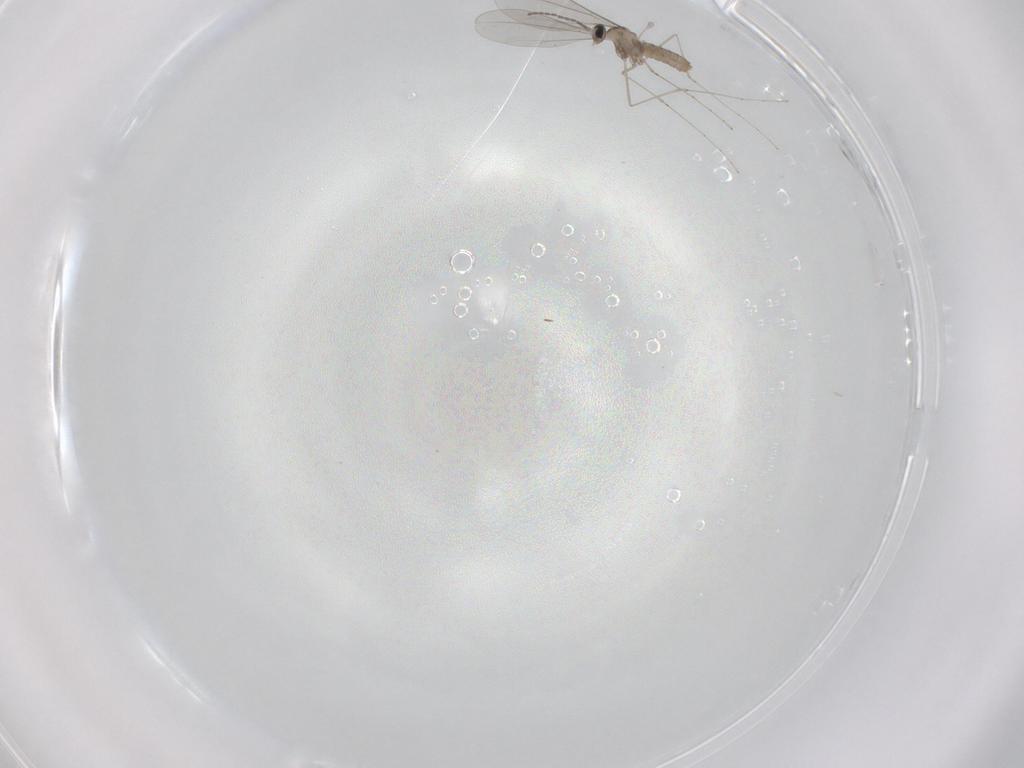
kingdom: Animalia
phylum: Arthropoda
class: Insecta
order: Diptera
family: Cecidomyiidae
